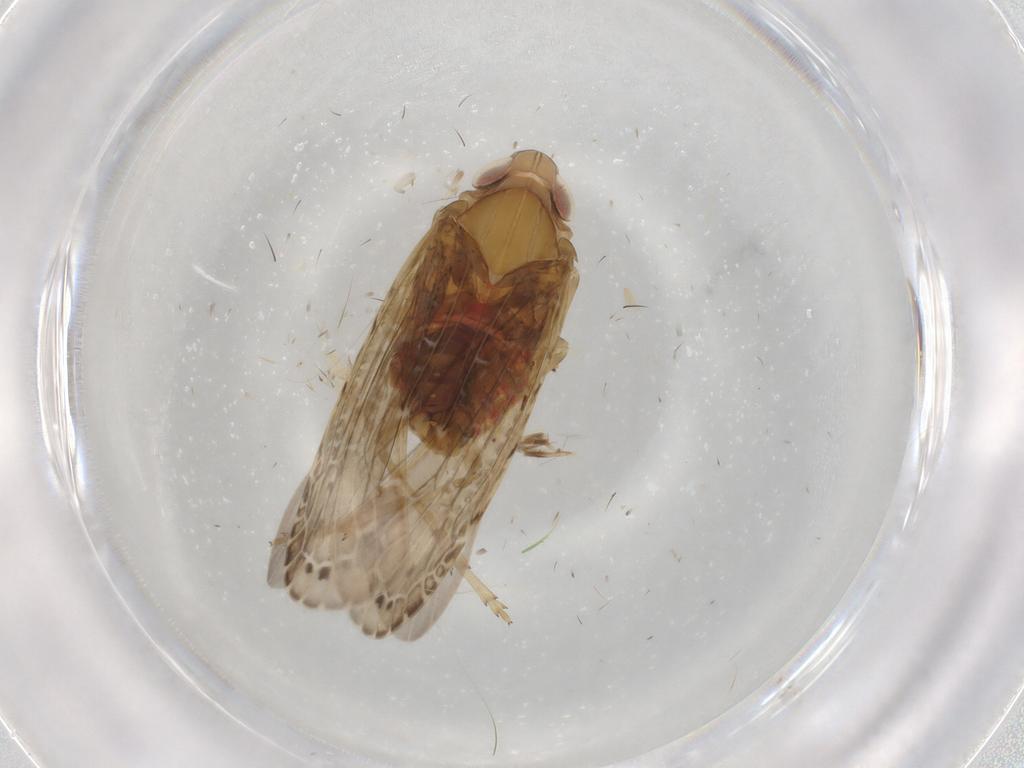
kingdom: Animalia
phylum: Arthropoda
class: Insecta
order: Hemiptera
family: Cicadellidae
